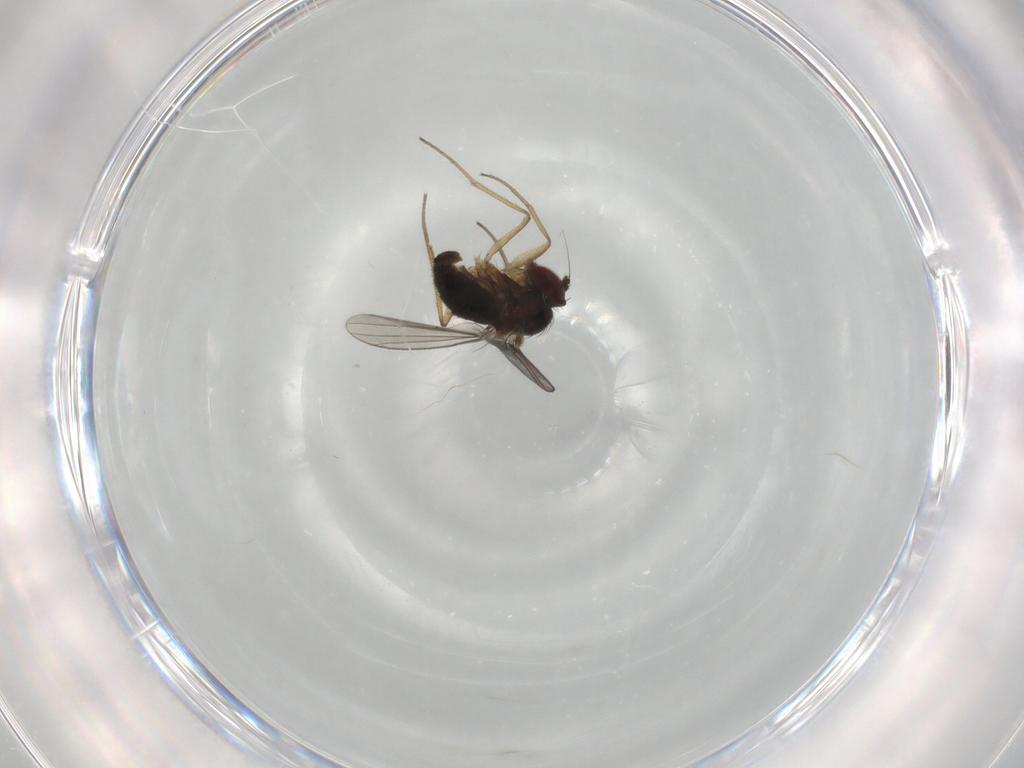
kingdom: Animalia
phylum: Arthropoda
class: Insecta
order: Diptera
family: Dolichopodidae
